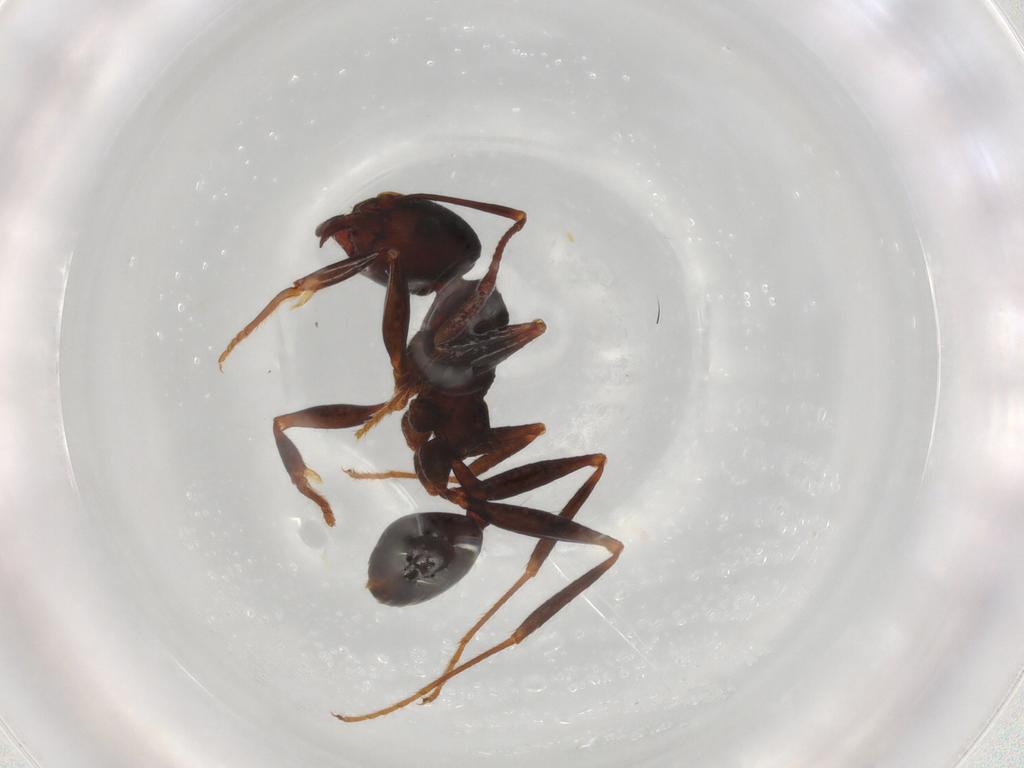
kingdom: Animalia
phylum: Arthropoda
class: Insecta
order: Hymenoptera
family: Formicidae
